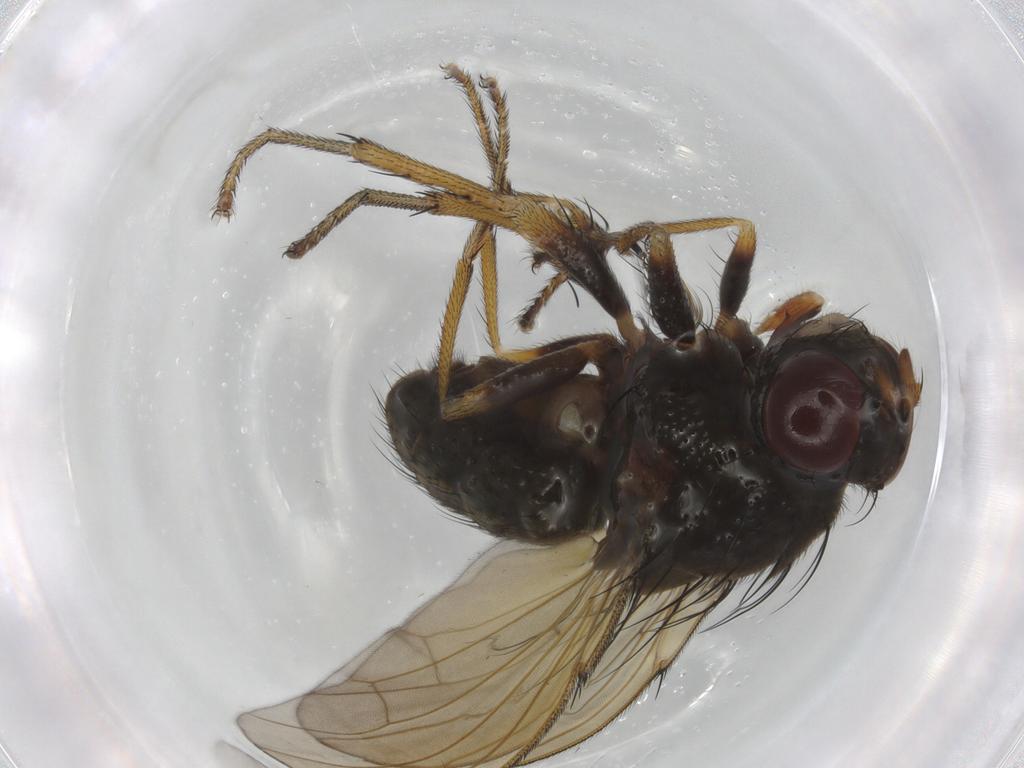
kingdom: Animalia
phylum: Arthropoda
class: Insecta
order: Diptera
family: Ephydridae
